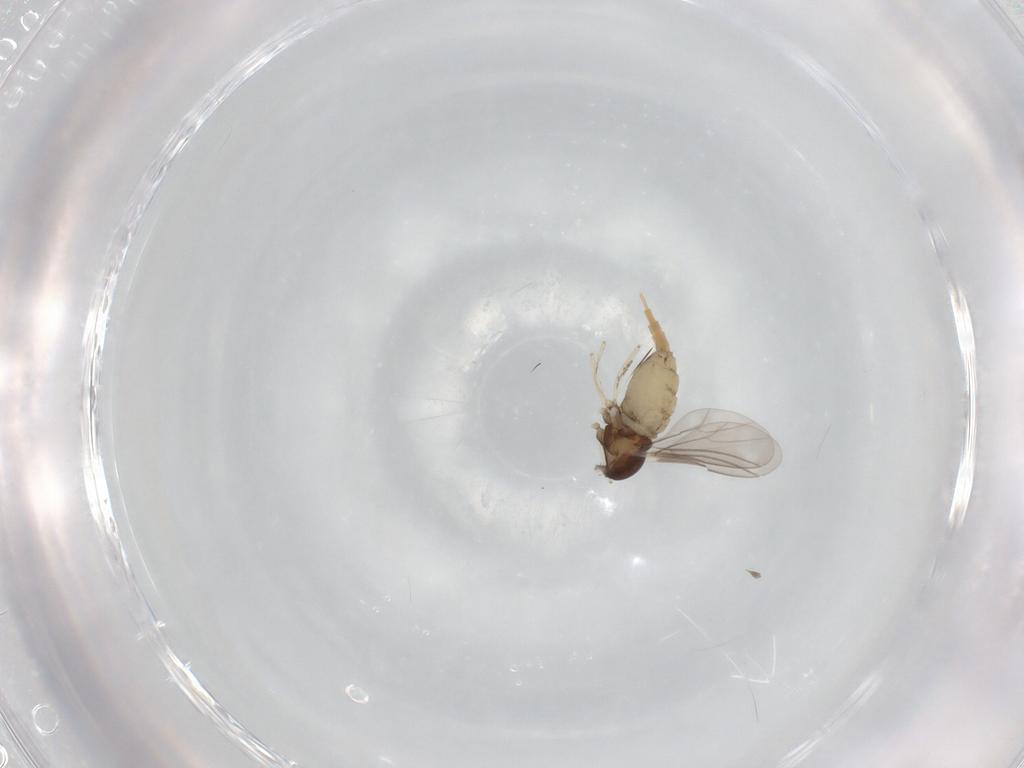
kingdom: Animalia
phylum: Arthropoda
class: Insecta
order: Diptera
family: Cecidomyiidae
